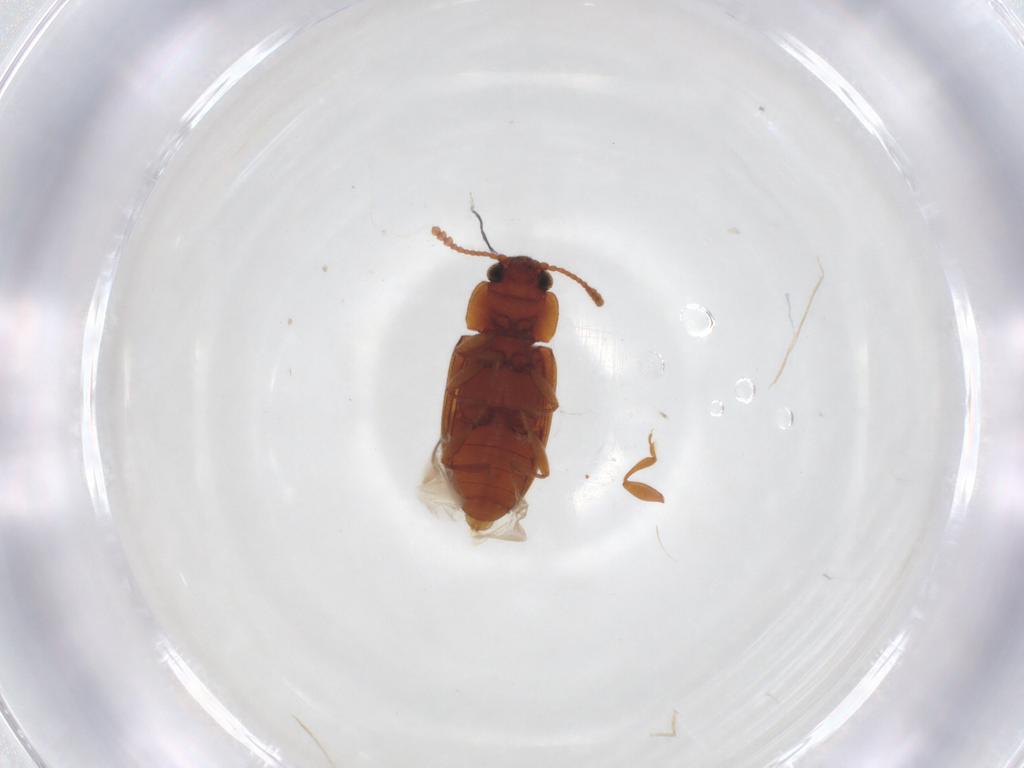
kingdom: Animalia
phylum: Arthropoda
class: Insecta
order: Coleoptera
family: Erotylidae
